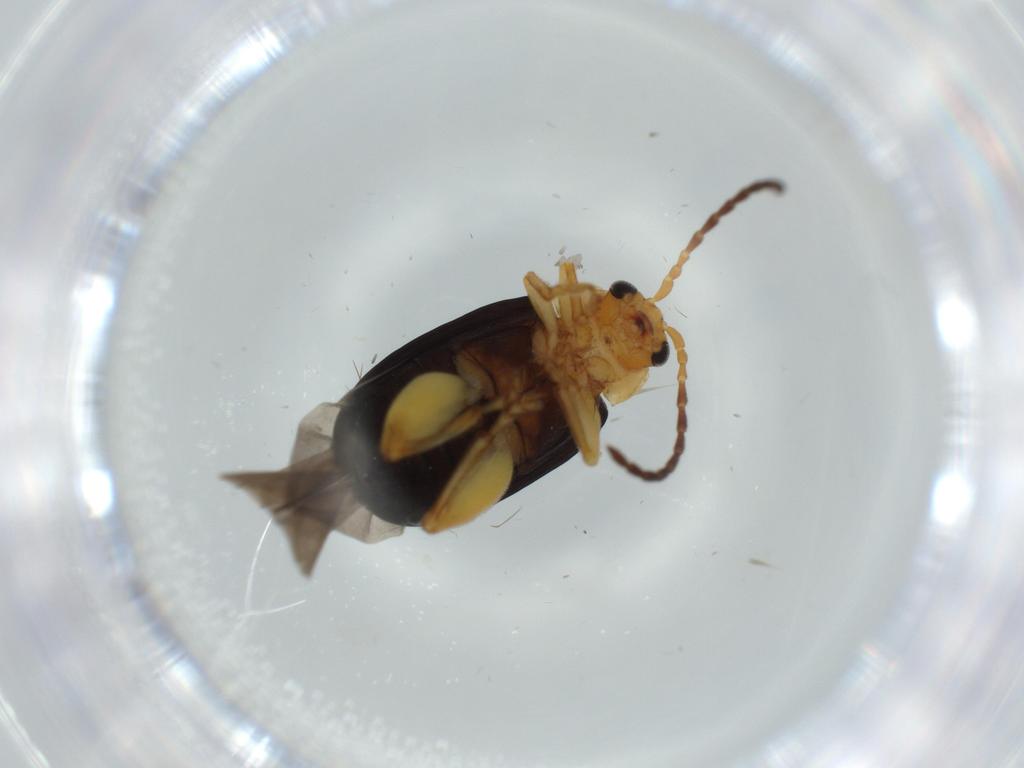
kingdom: Animalia
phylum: Arthropoda
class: Insecta
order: Coleoptera
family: Chrysomelidae
